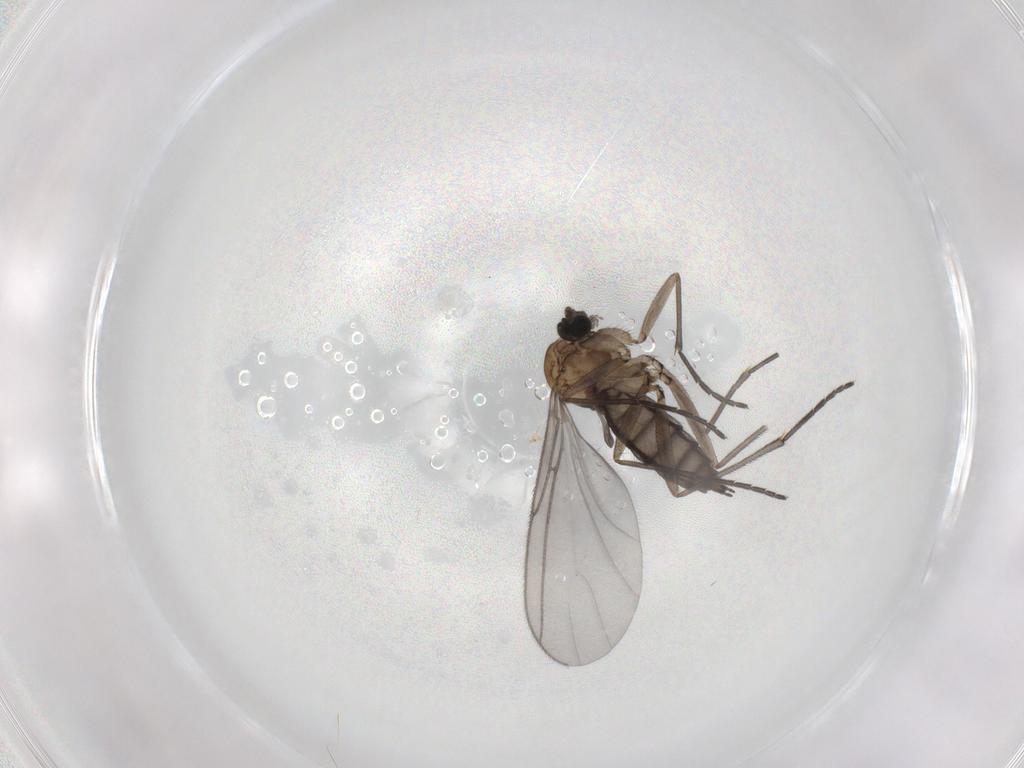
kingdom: Animalia
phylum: Arthropoda
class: Insecta
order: Diptera
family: Sciaridae
